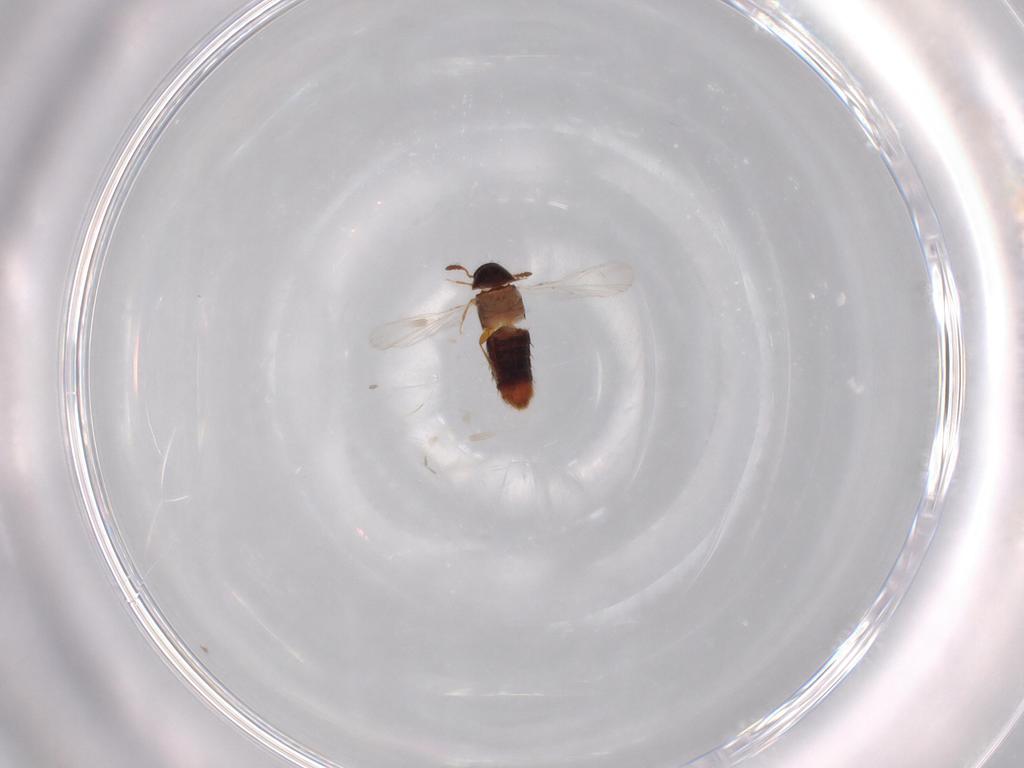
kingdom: Animalia
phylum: Arthropoda
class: Insecta
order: Coleoptera
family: Staphylinidae
